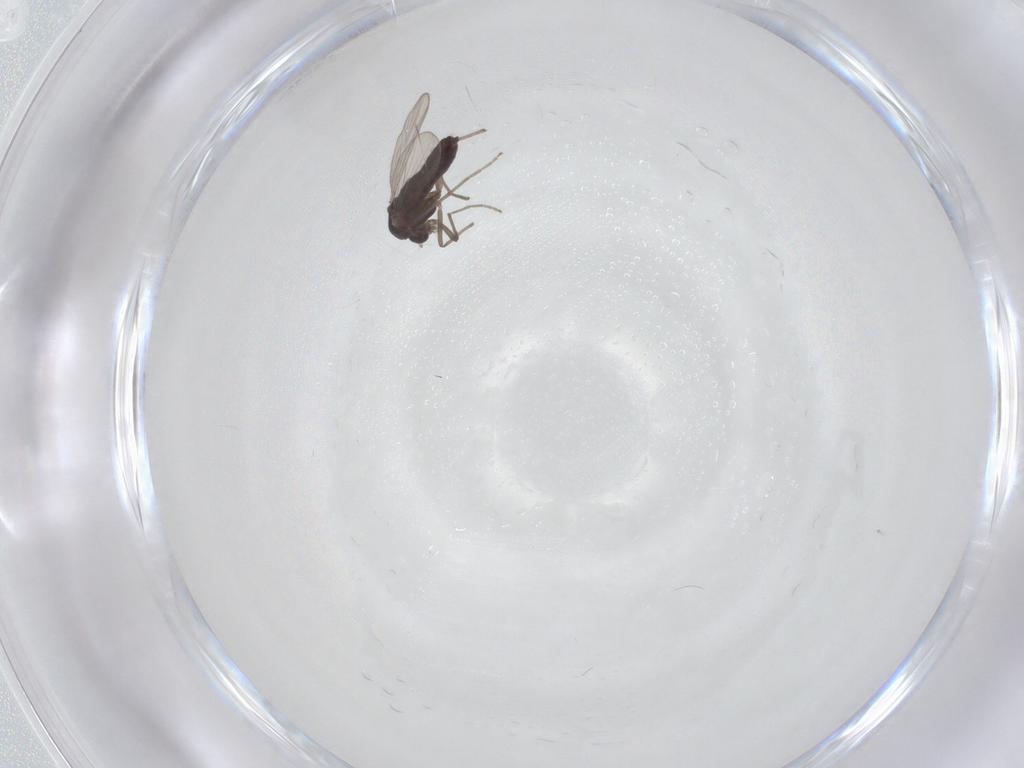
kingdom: Animalia
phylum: Arthropoda
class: Insecta
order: Diptera
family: Chironomidae
